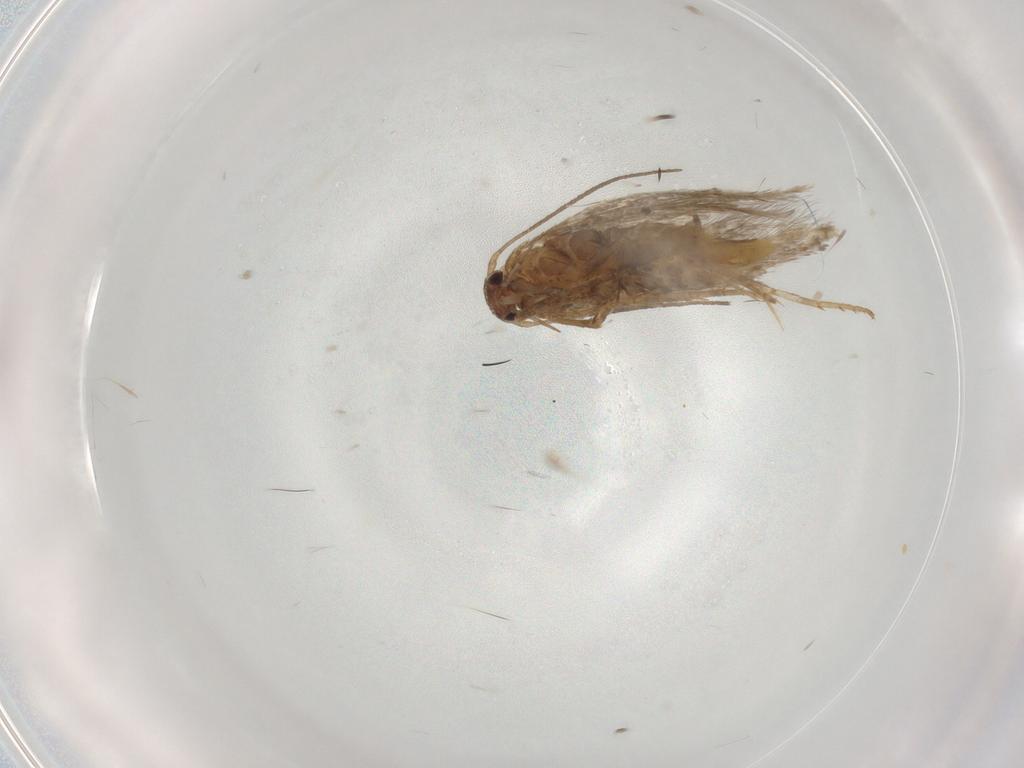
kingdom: Animalia
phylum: Arthropoda
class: Insecta
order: Lepidoptera
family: Elachistidae
